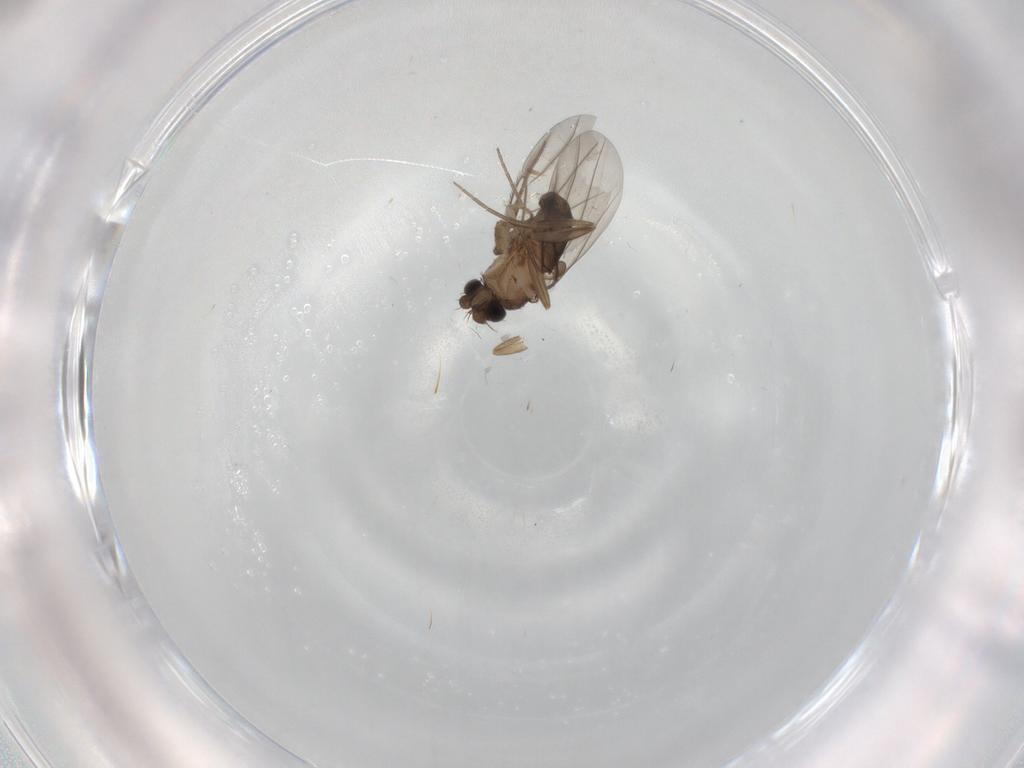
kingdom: Animalia
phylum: Arthropoda
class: Insecta
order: Diptera
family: Phoridae
